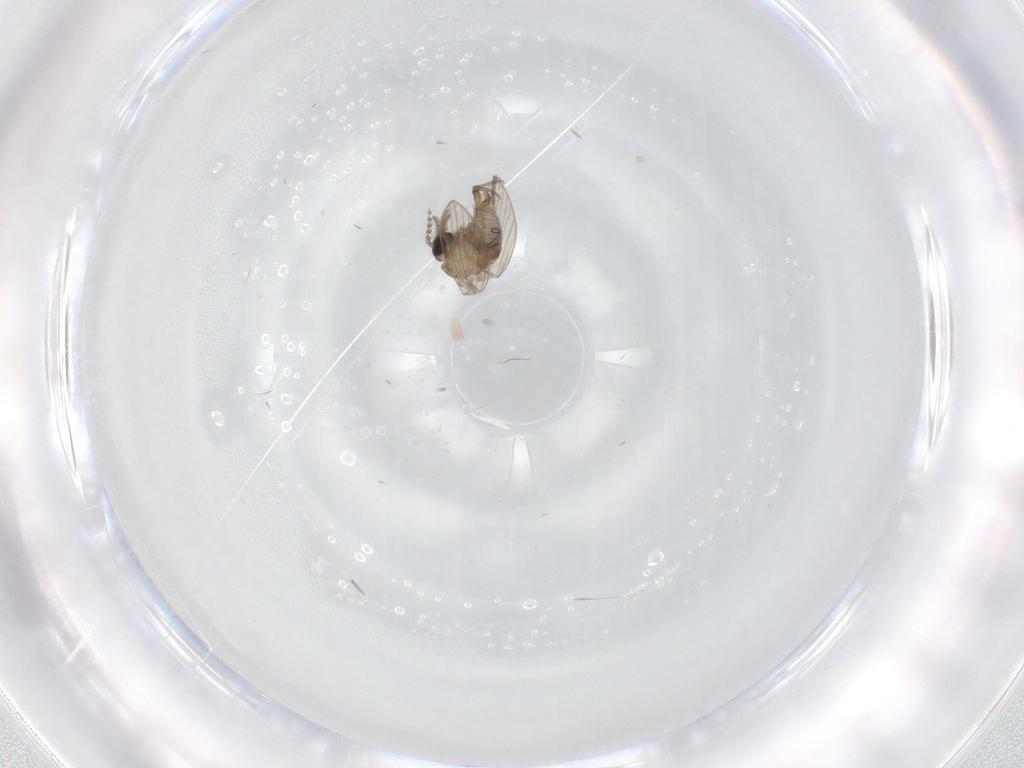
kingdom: Animalia
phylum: Arthropoda
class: Insecta
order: Diptera
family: Psychodidae
